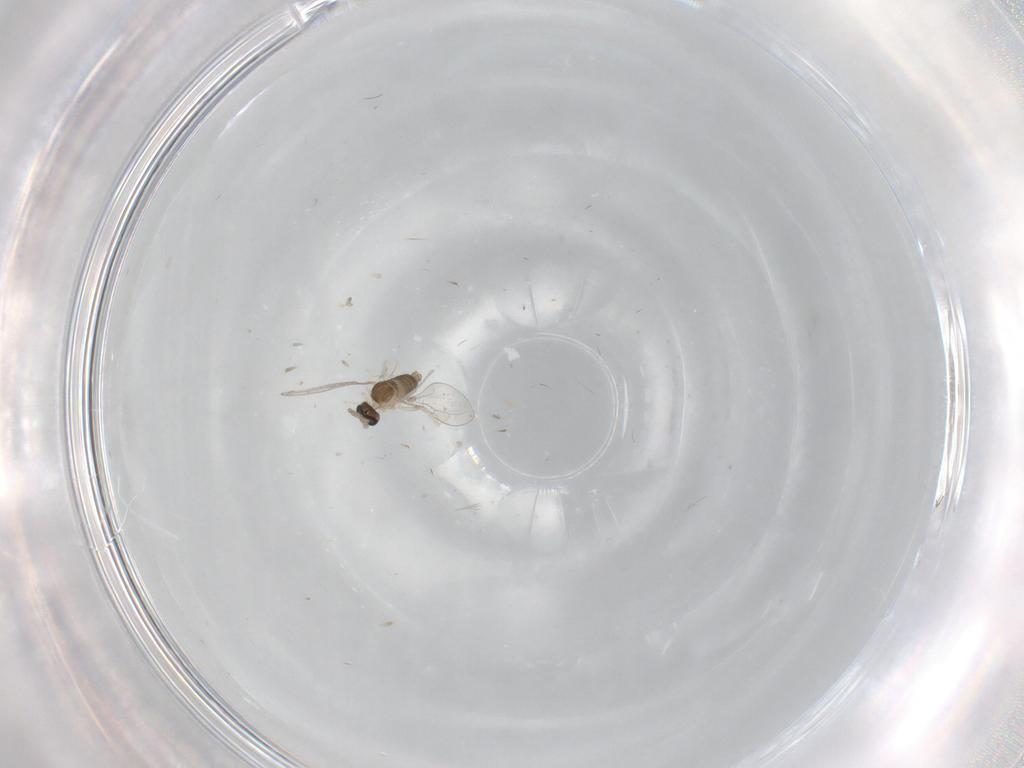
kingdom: Animalia
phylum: Arthropoda
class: Insecta
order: Diptera
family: Cecidomyiidae
